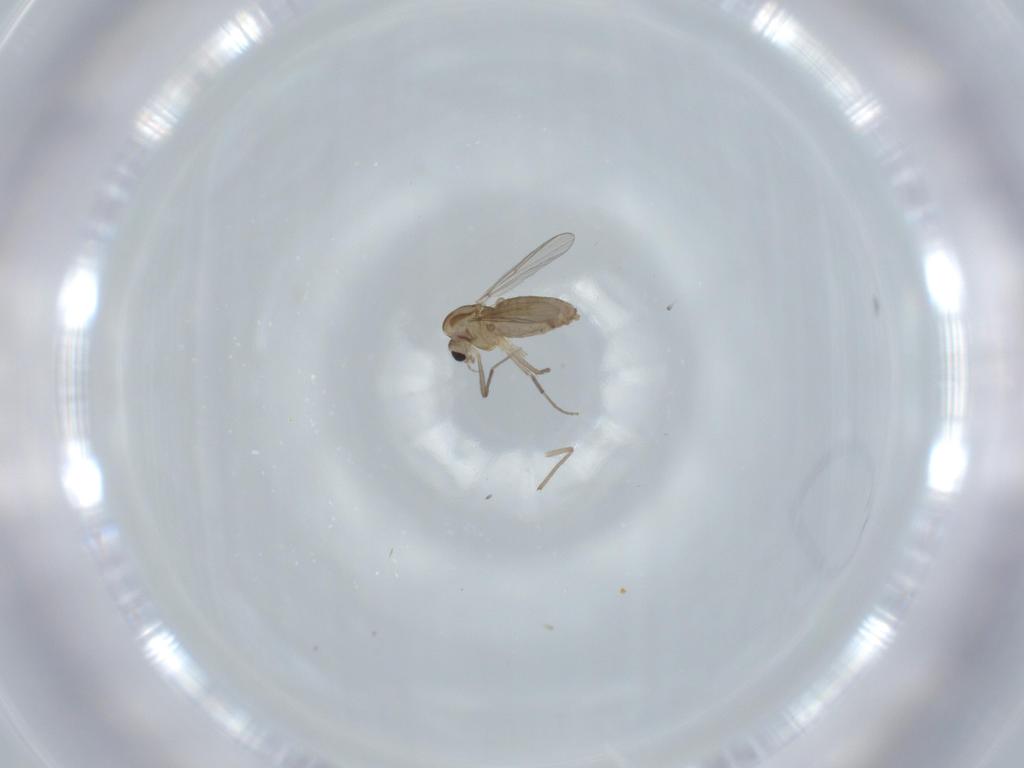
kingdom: Animalia
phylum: Arthropoda
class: Insecta
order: Diptera
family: Chironomidae
